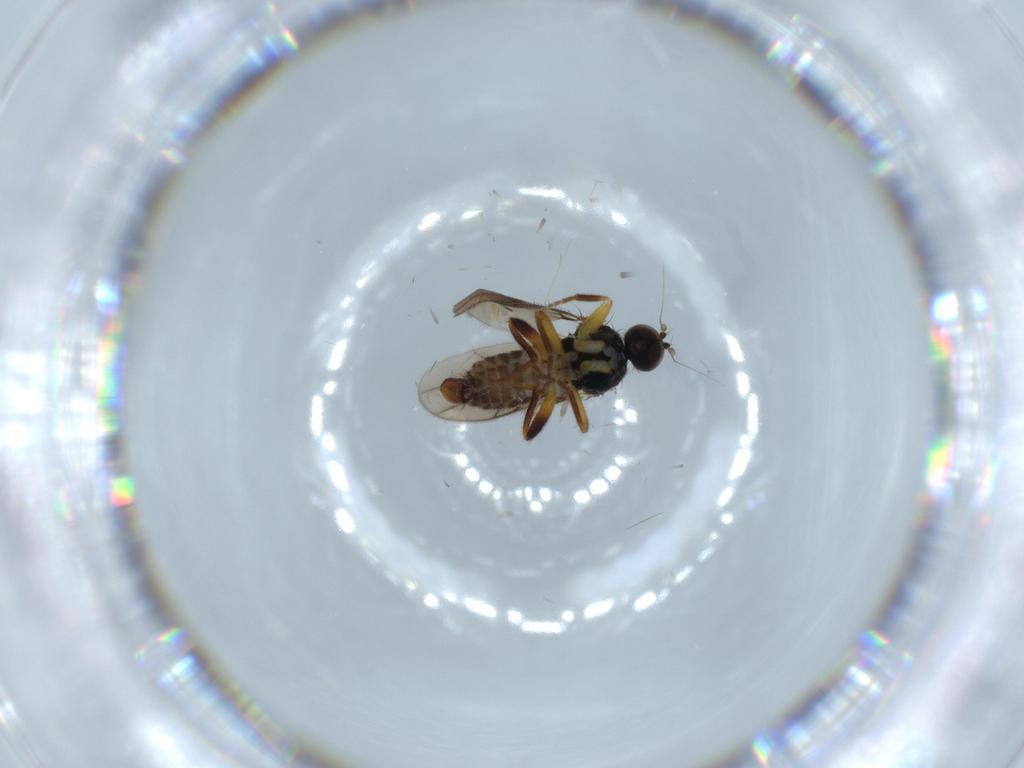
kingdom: Animalia
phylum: Arthropoda
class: Insecta
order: Diptera
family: Hybotidae
